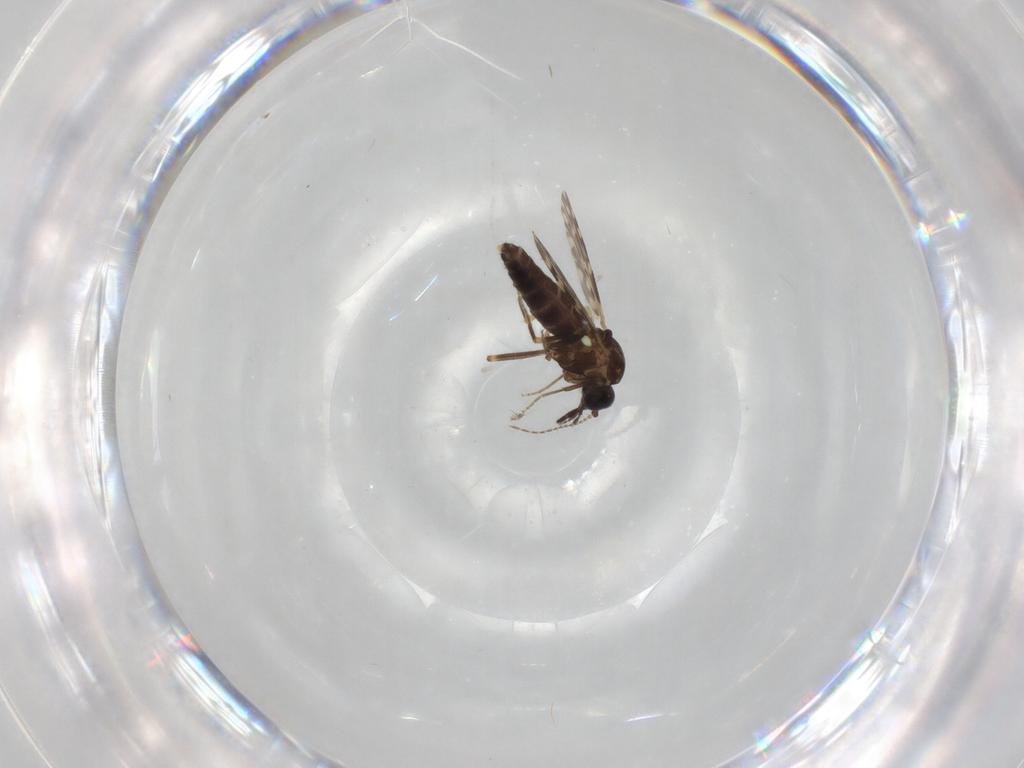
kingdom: Animalia
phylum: Arthropoda
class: Insecta
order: Diptera
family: Ceratopogonidae
